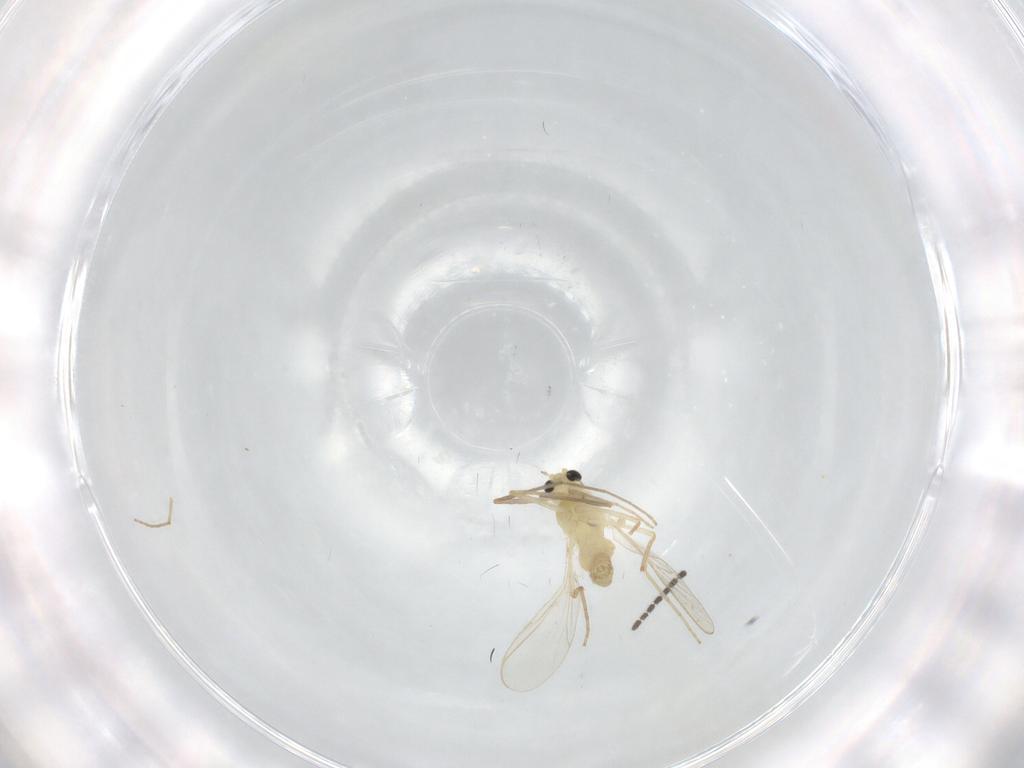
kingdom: Animalia
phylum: Arthropoda
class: Insecta
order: Diptera
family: Chironomidae
